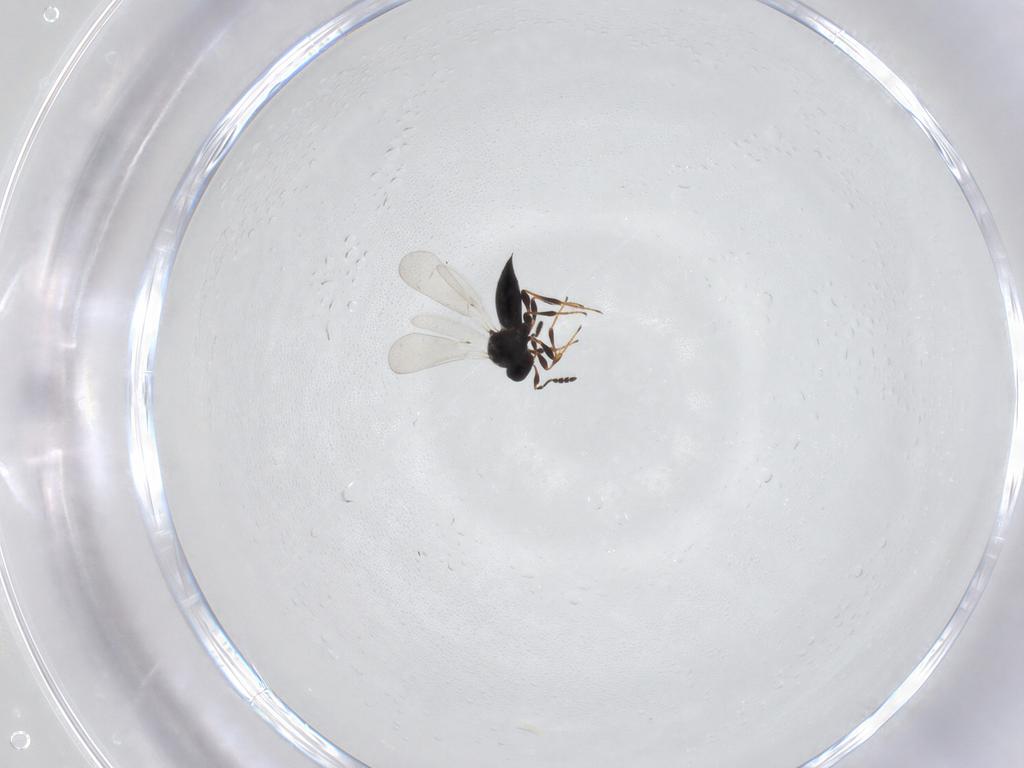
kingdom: Animalia
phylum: Arthropoda
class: Insecta
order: Hymenoptera
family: Platygastridae
